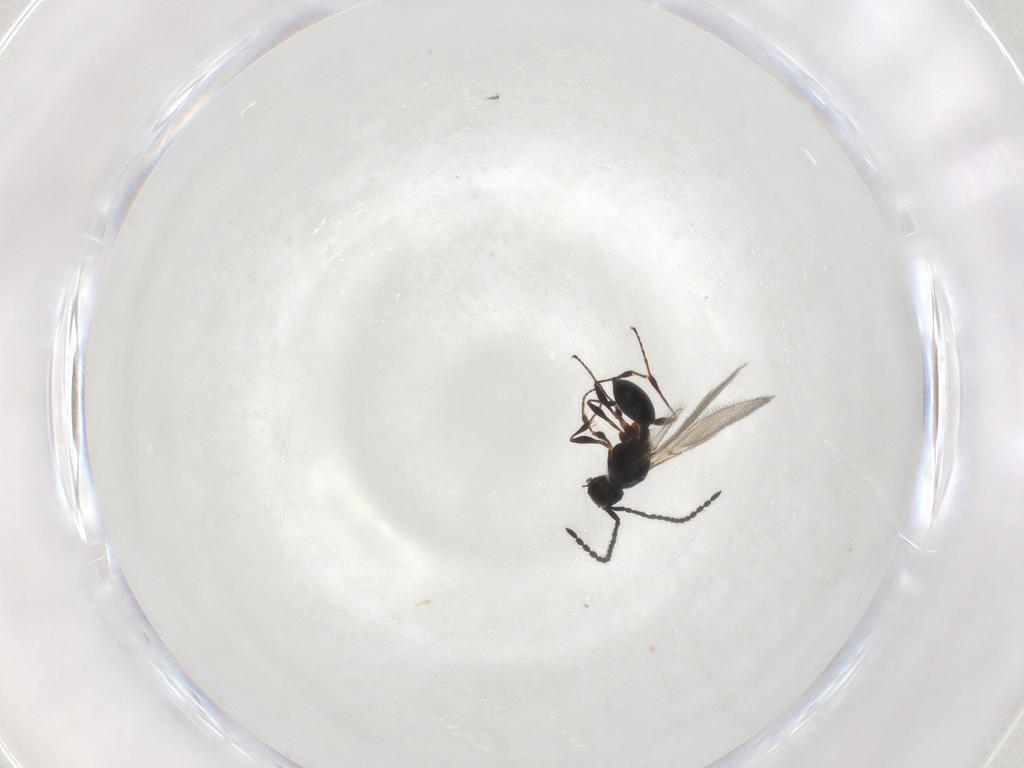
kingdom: Animalia
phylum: Arthropoda
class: Insecta
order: Hymenoptera
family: Diapriidae
